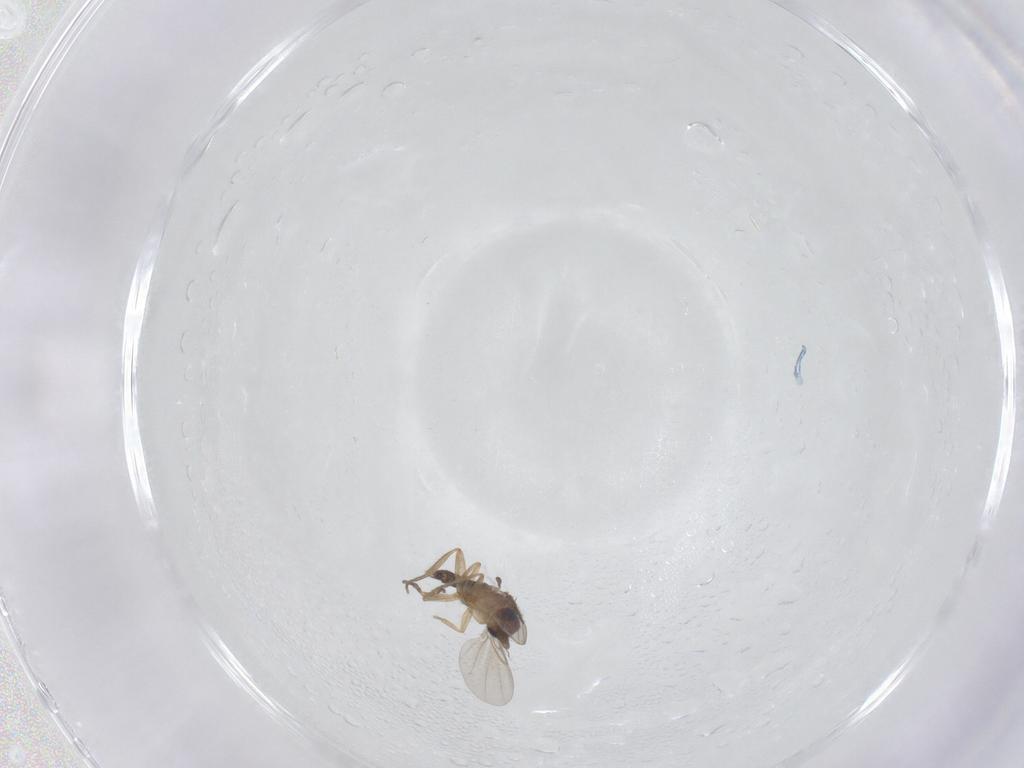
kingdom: Animalia
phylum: Arthropoda
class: Insecta
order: Diptera
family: Phoridae
